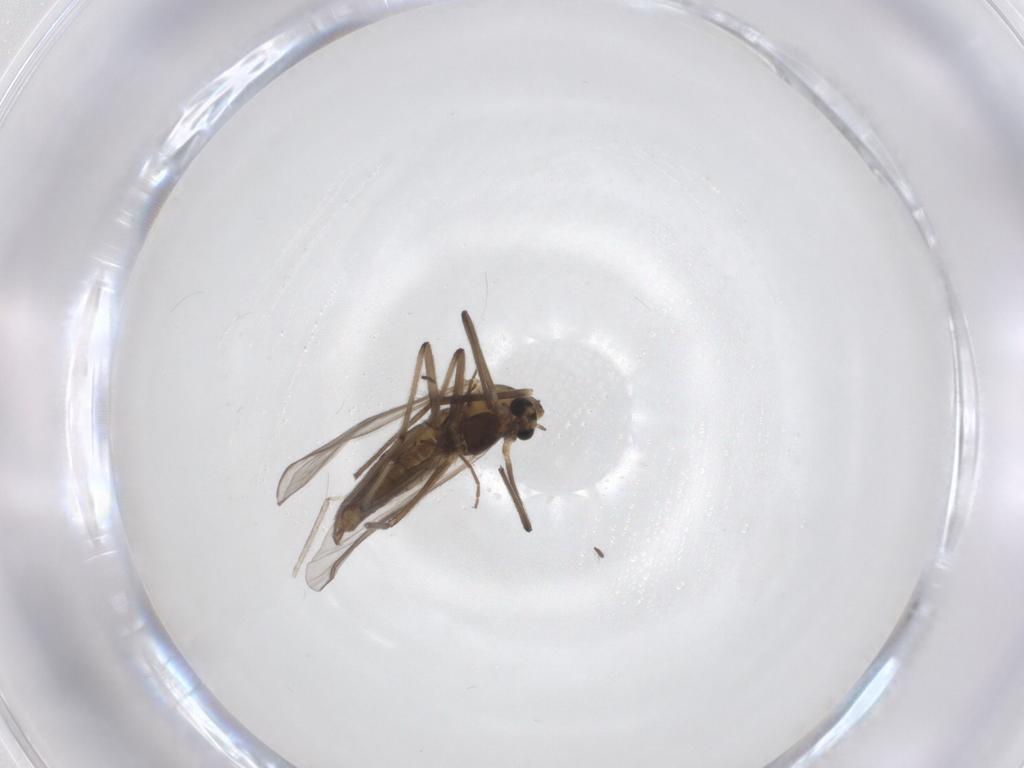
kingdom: Animalia
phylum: Arthropoda
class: Insecta
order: Diptera
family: Chironomidae
